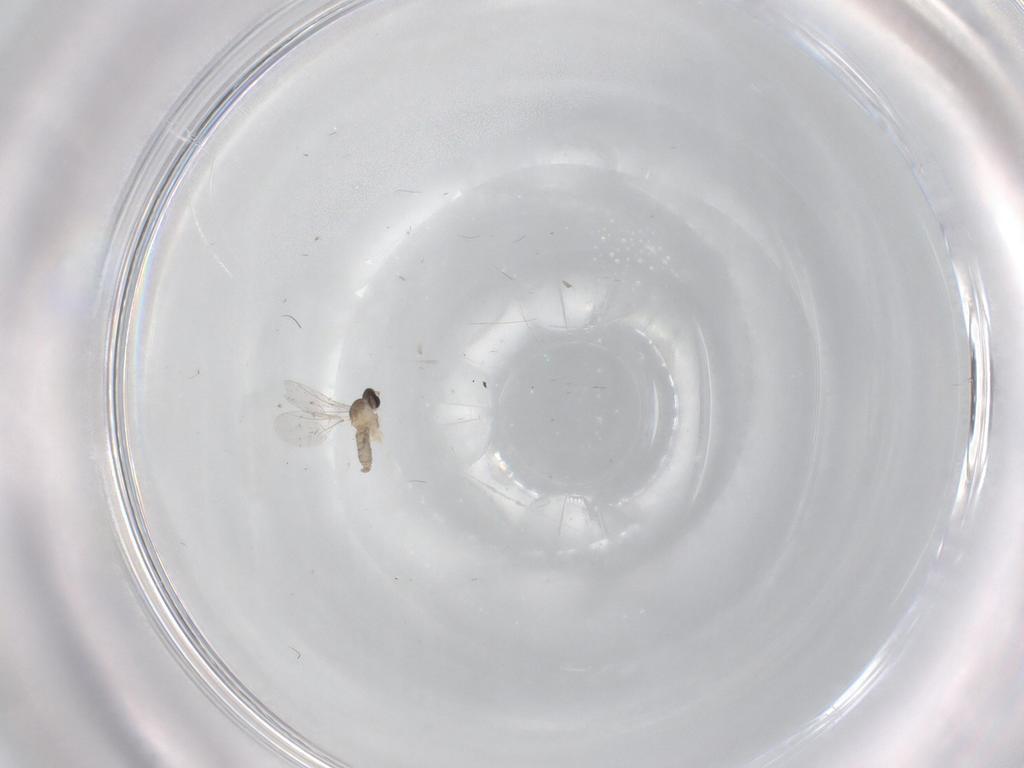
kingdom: Animalia
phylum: Arthropoda
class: Insecta
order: Diptera
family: Cecidomyiidae
